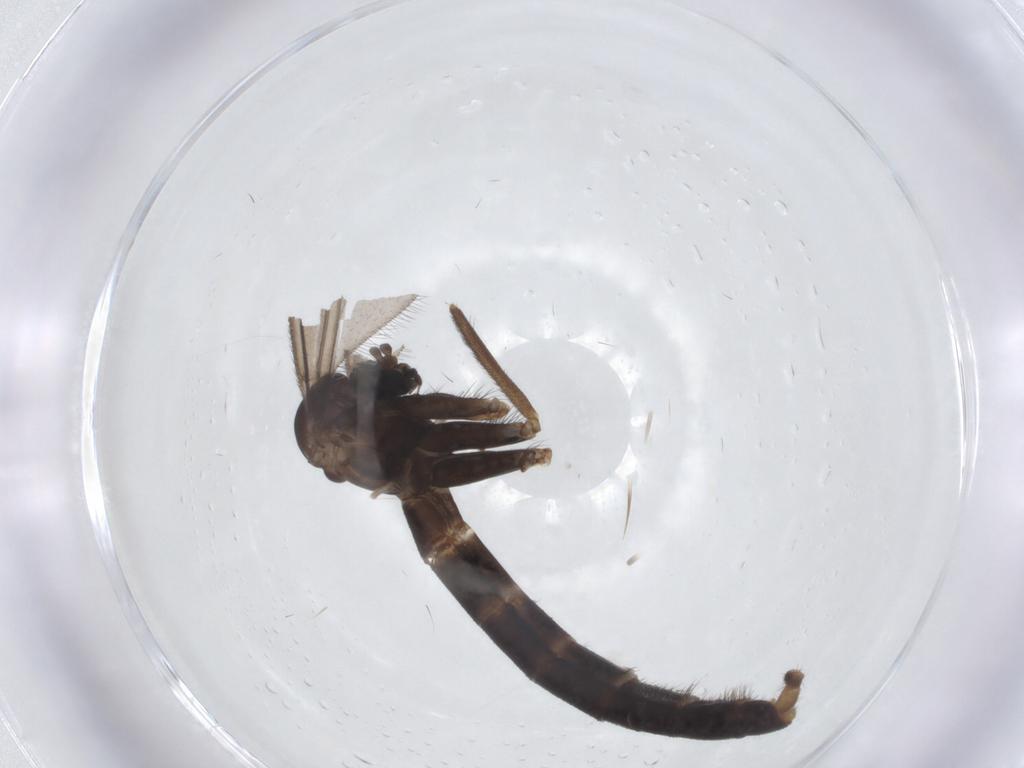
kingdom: Animalia
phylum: Arthropoda
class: Insecta
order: Diptera
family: Tachinidae
